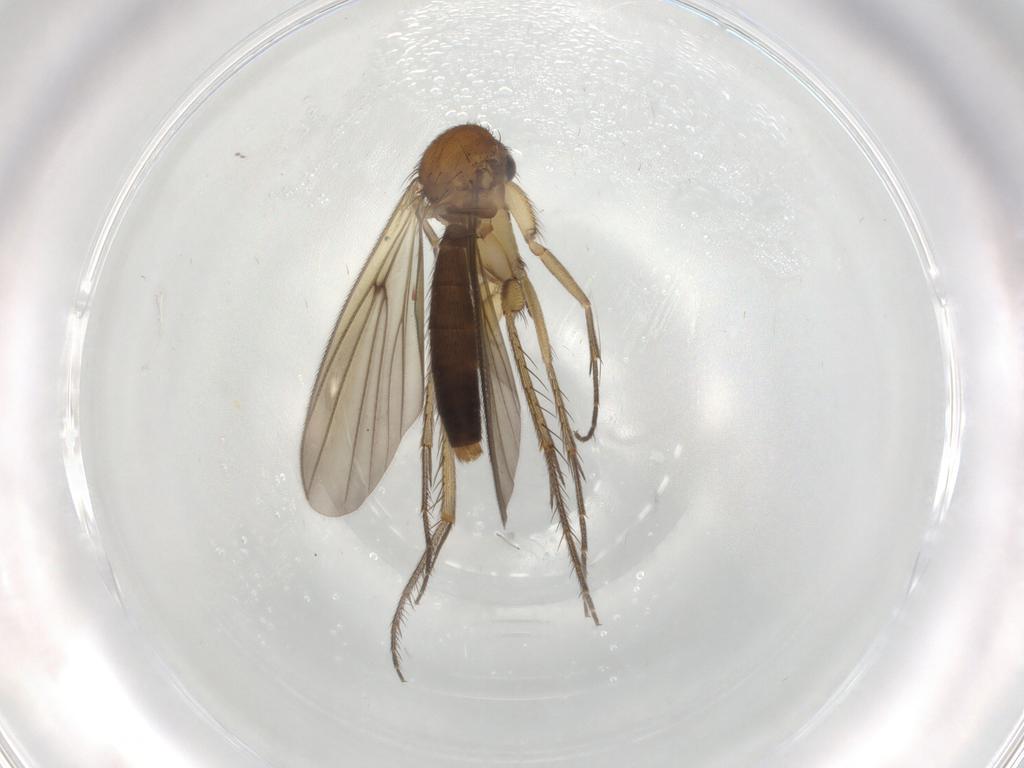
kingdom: Animalia
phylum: Arthropoda
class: Insecta
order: Diptera
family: Cecidomyiidae
